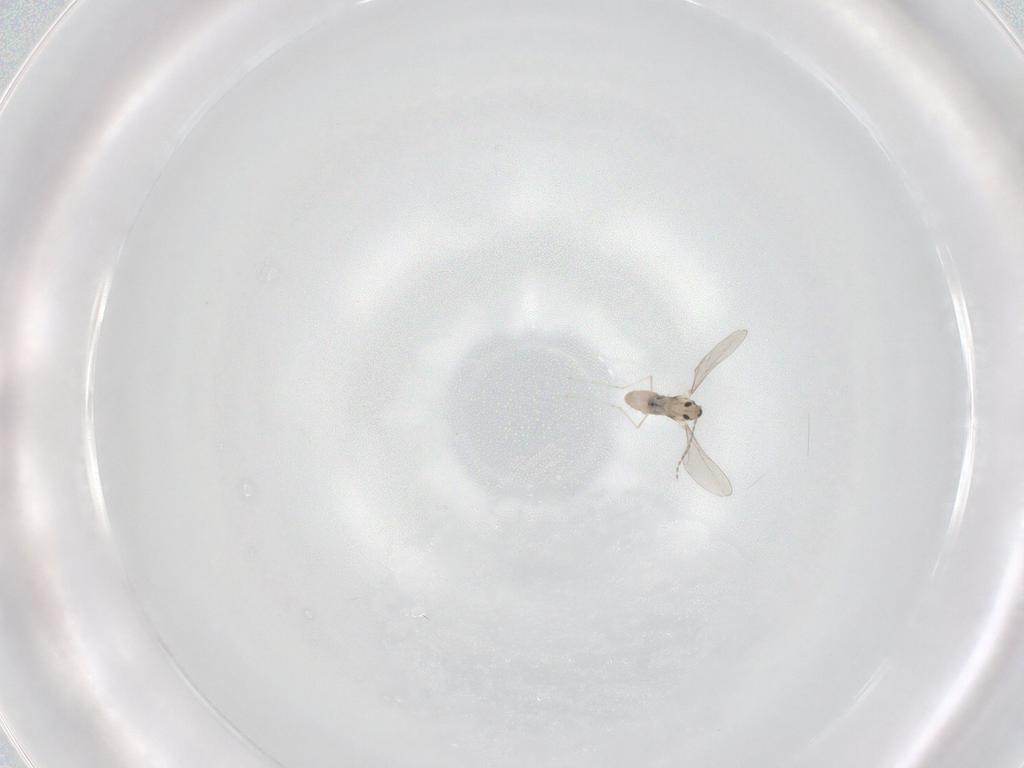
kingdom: Animalia
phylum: Arthropoda
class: Insecta
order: Diptera
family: Cecidomyiidae
